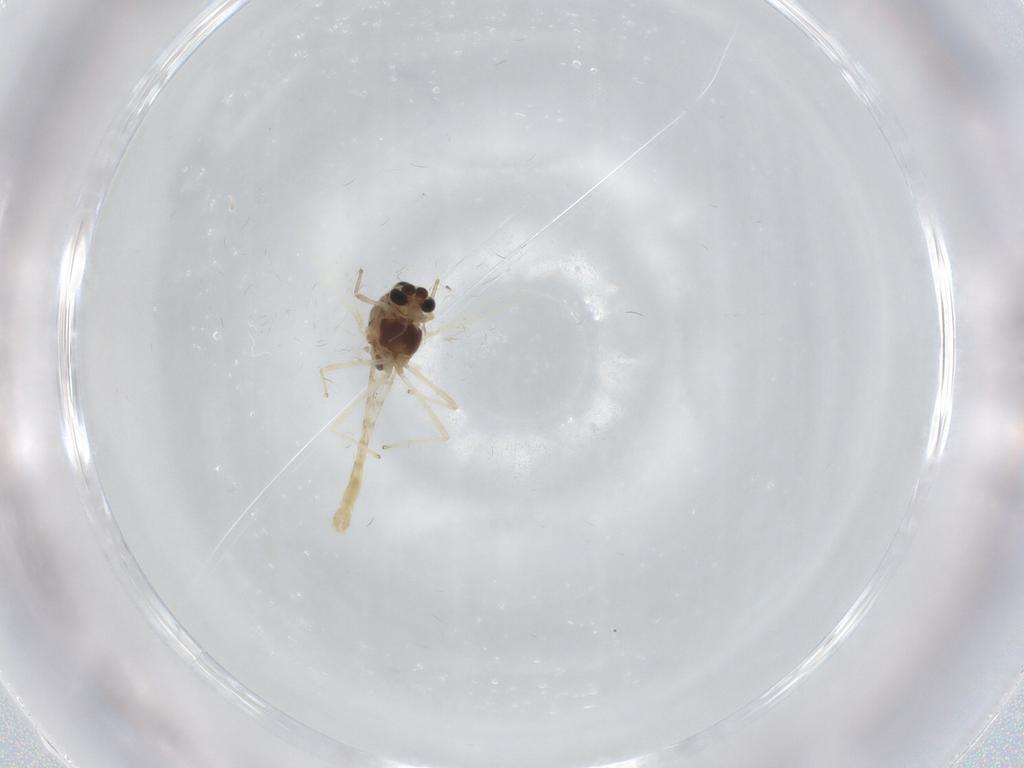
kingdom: Animalia
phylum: Arthropoda
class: Insecta
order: Diptera
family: Chironomidae
